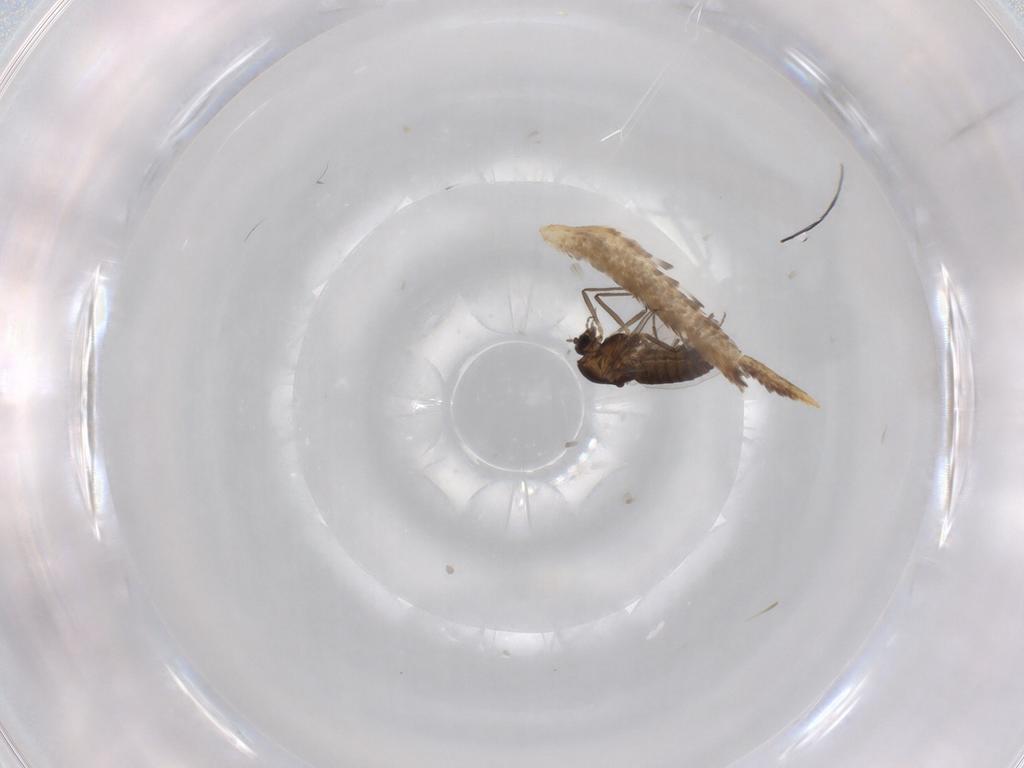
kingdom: Animalia
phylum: Arthropoda
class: Insecta
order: Diptera
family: Chironomidae
